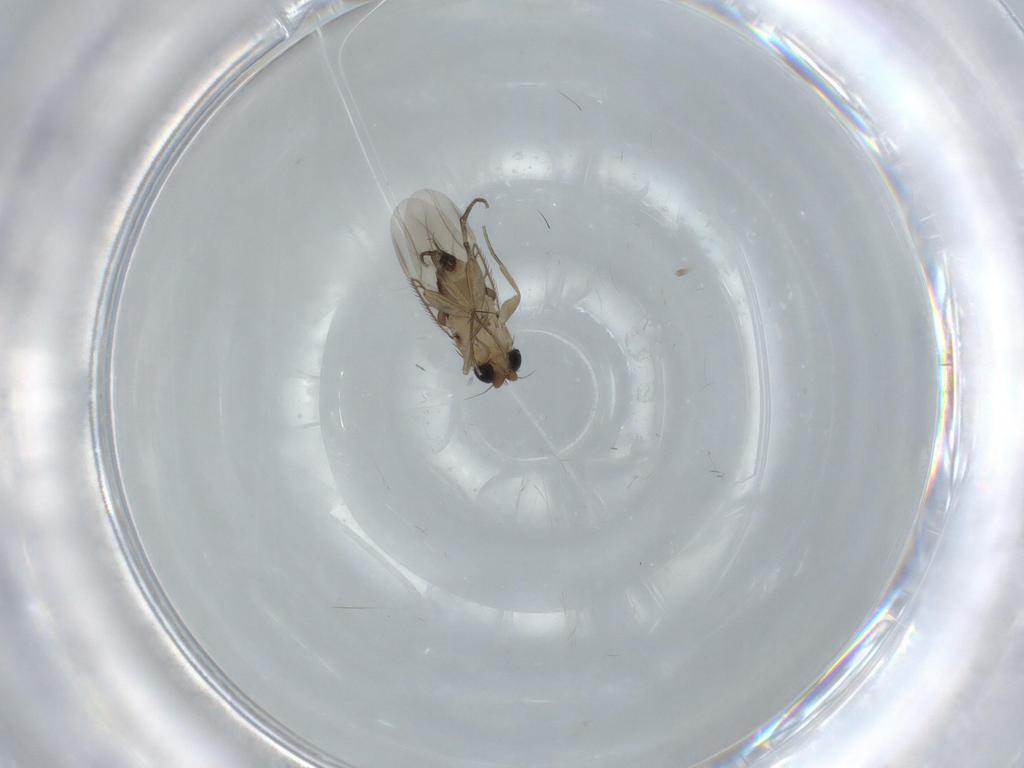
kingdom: Animalia
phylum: Arthropoda
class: Insecta
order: Diptera
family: Phoridae
